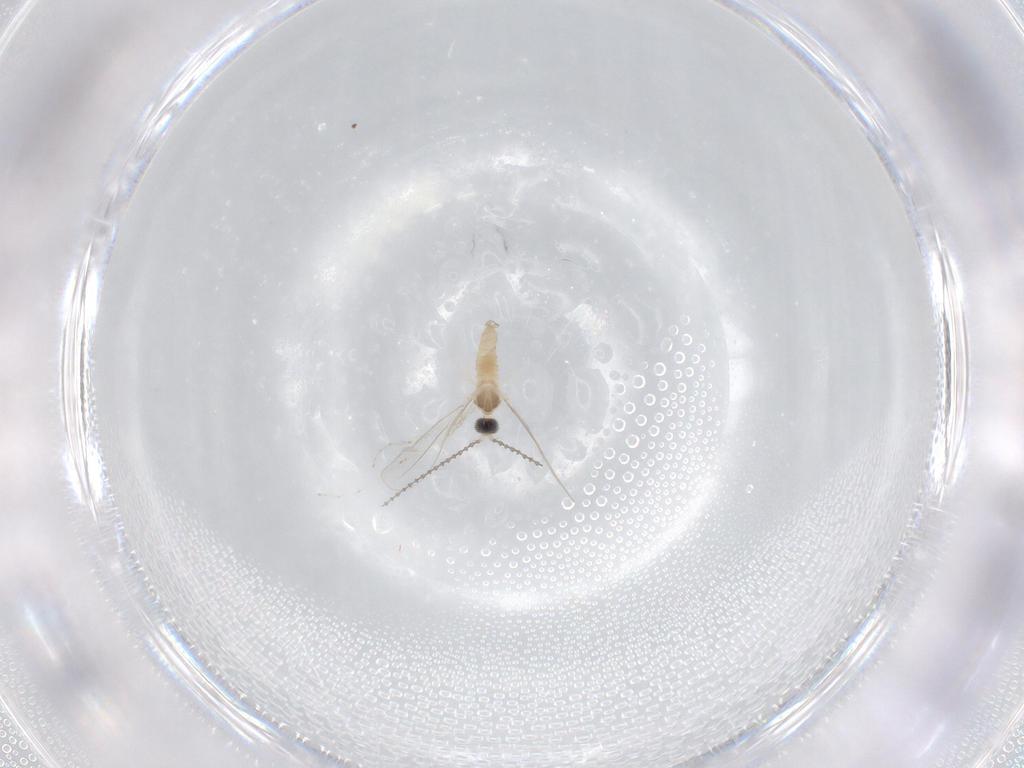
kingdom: Animalia
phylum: Arthropoda
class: Insecta
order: Diptera
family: Cecidomyiidae
